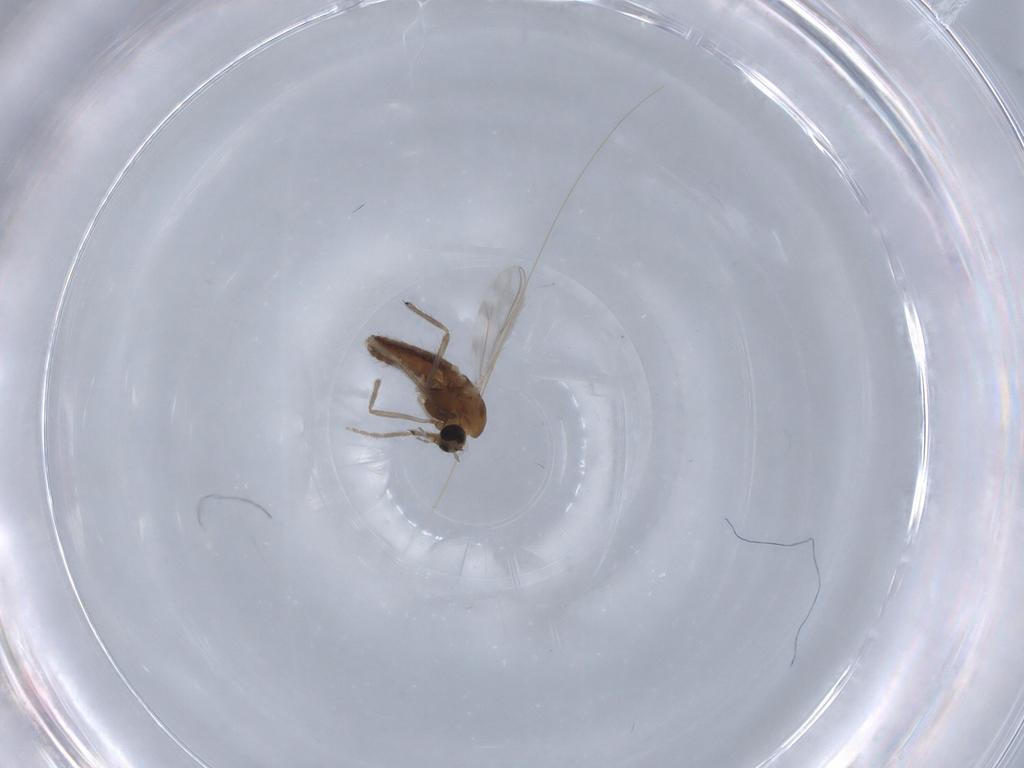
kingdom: Animalia
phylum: Arthropoda
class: Insecta
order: Diptera
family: Chironomidae
